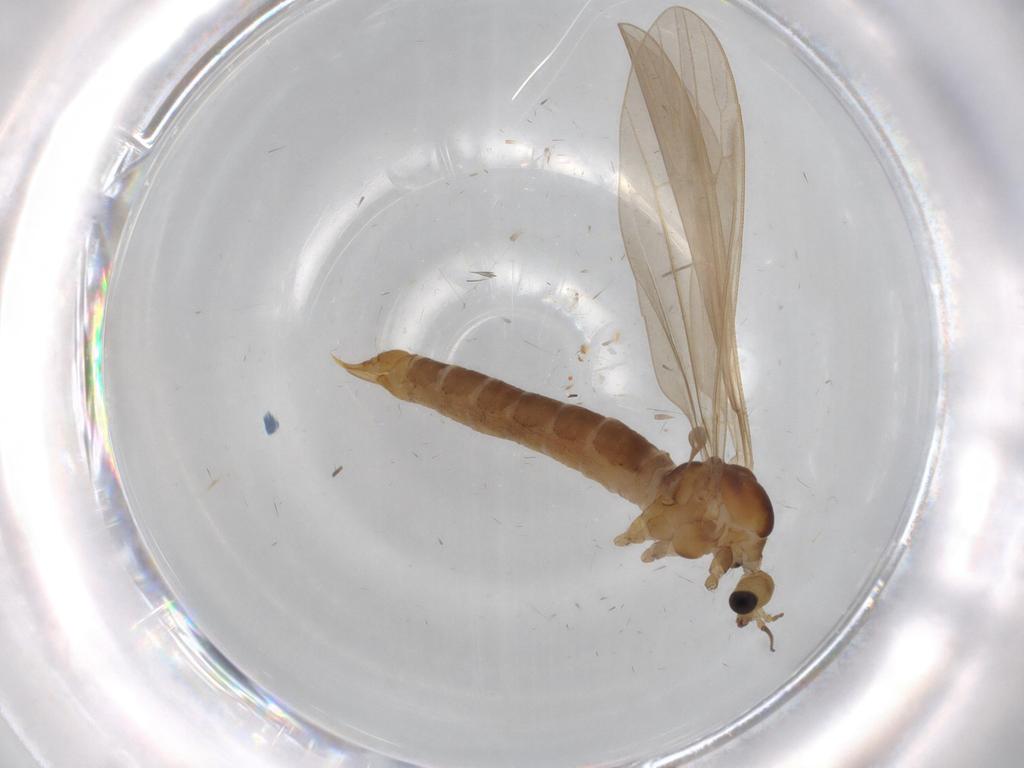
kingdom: Animalia
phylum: Arthropoda
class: Insecta
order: Diptera
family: Limoniidae
